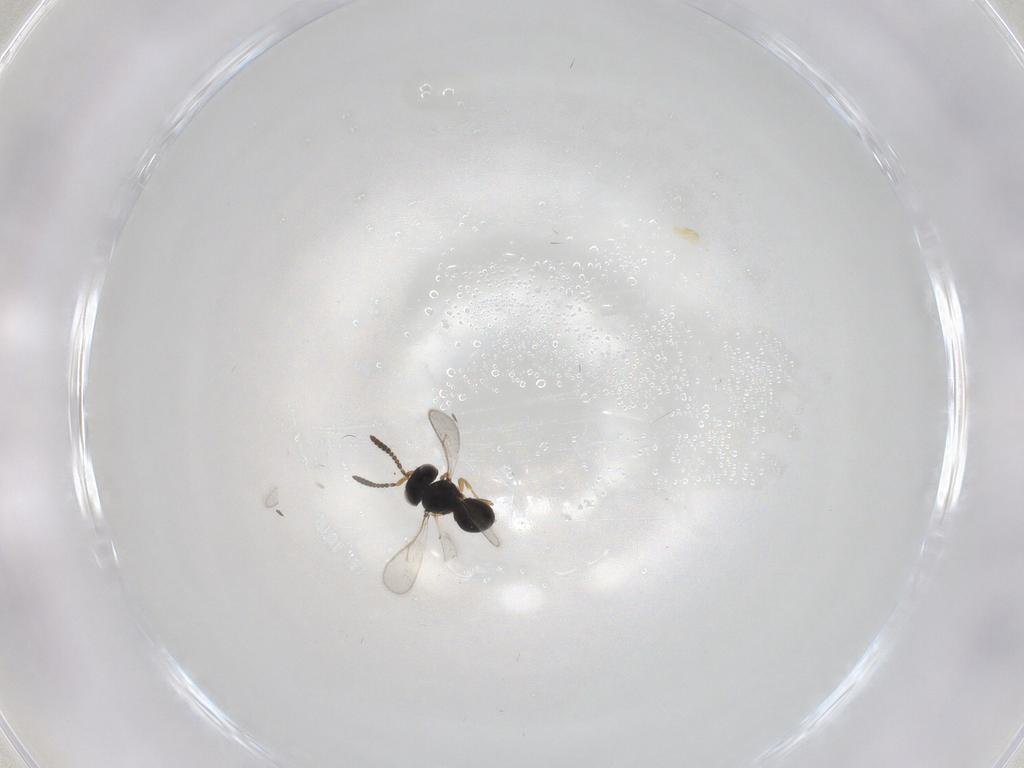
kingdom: Animalia
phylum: Arthropoda
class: Insecta
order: Hymenoptera
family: Scelionidae
